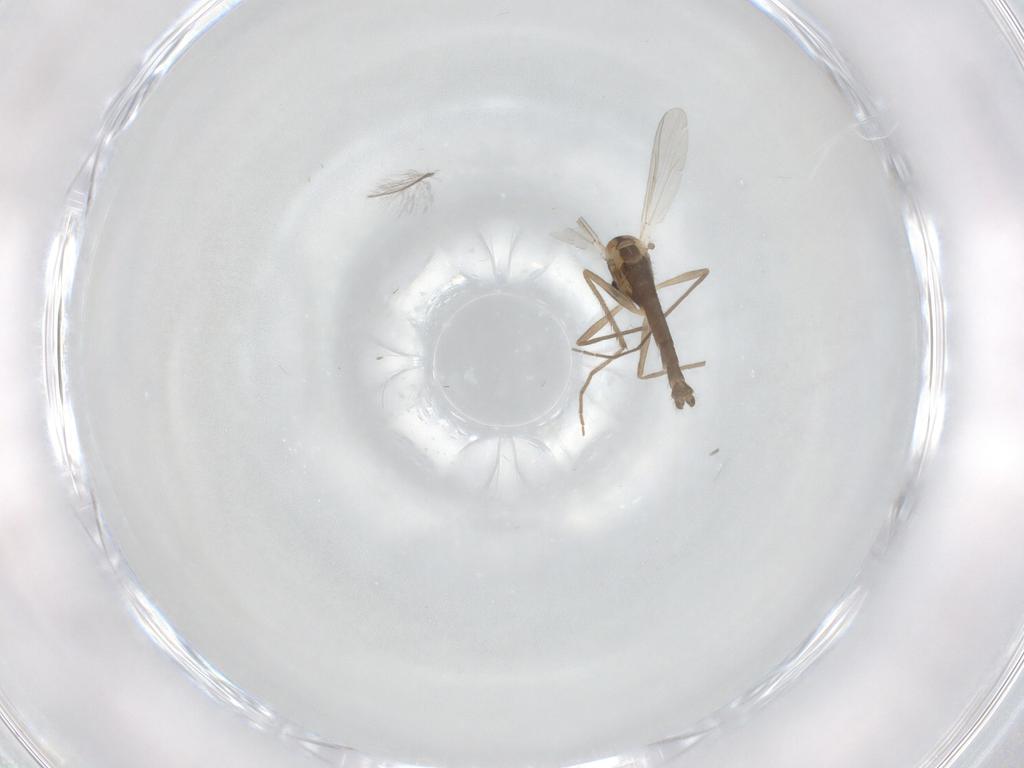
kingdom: Animalia
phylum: Arthropoda
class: Insecta
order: Diptera
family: Chironomidae
